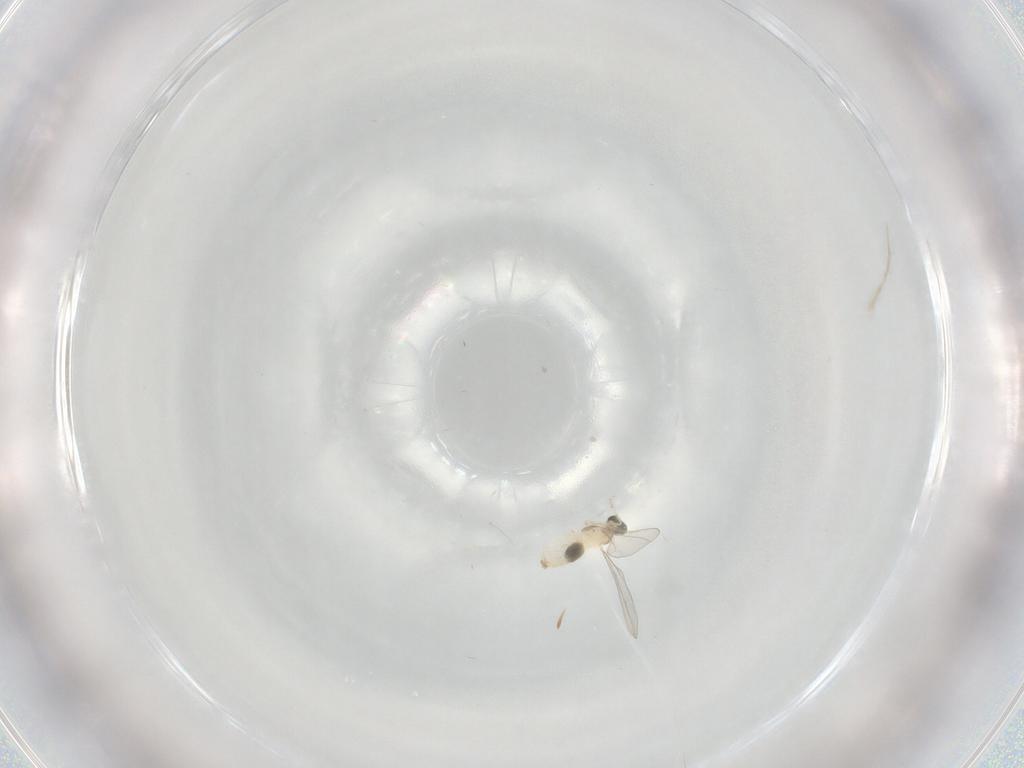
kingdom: Animalia
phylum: Arthropoda
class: Insecta
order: Diptera
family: Cecidomyiidae
